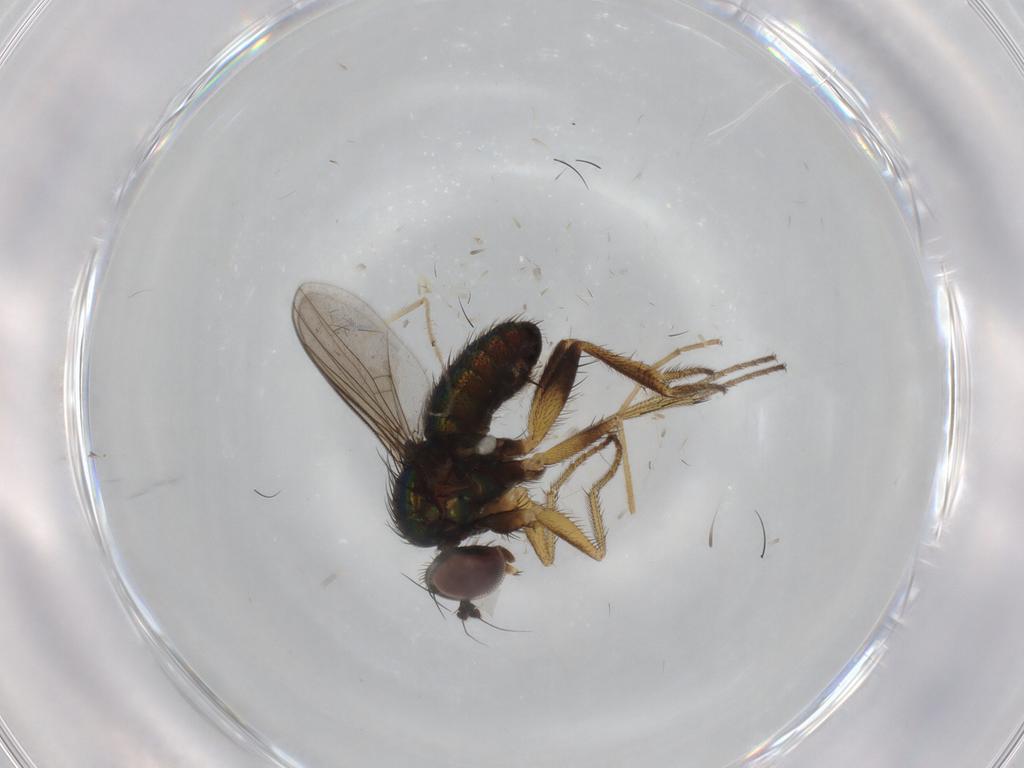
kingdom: Animalia
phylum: Arthropoda
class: Insecta
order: Diptera
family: Dolichopodidae
